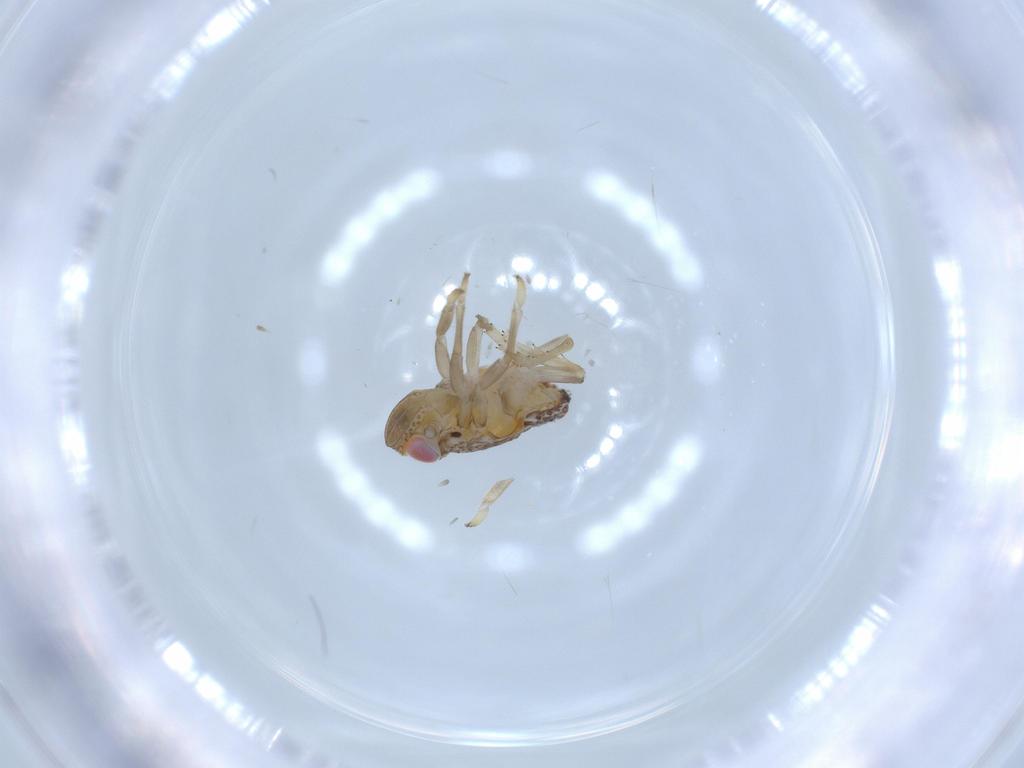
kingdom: Animalia
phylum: Arthropoda
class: Insecta
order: Hemiptera
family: Issidae
